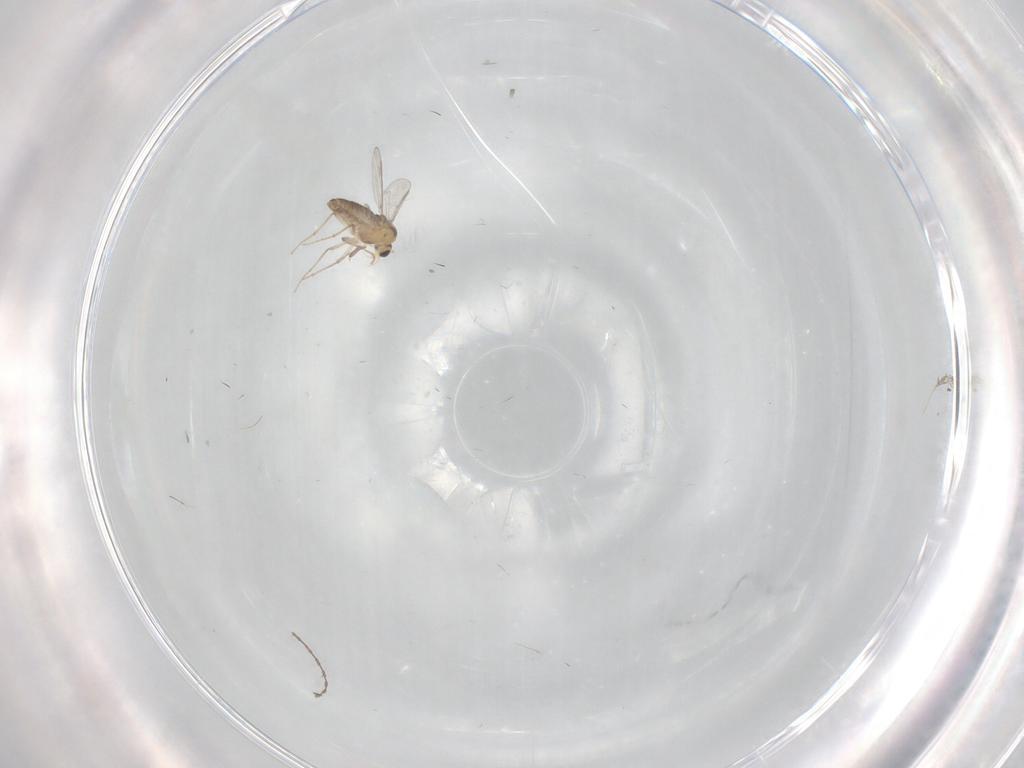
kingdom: Animalia
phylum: Arthropoda
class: Insecta
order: Diptera
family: Chironomidae
